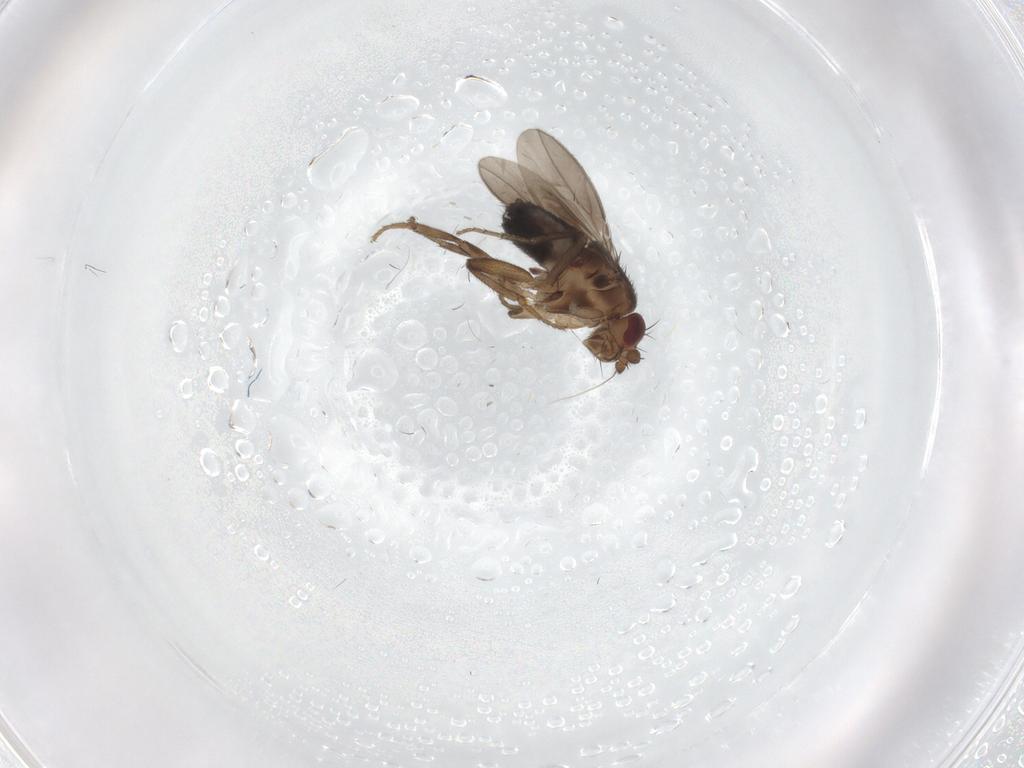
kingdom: Animalia
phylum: Arthropoda
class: Insecta
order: Diptera
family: Sphaeroceridae
